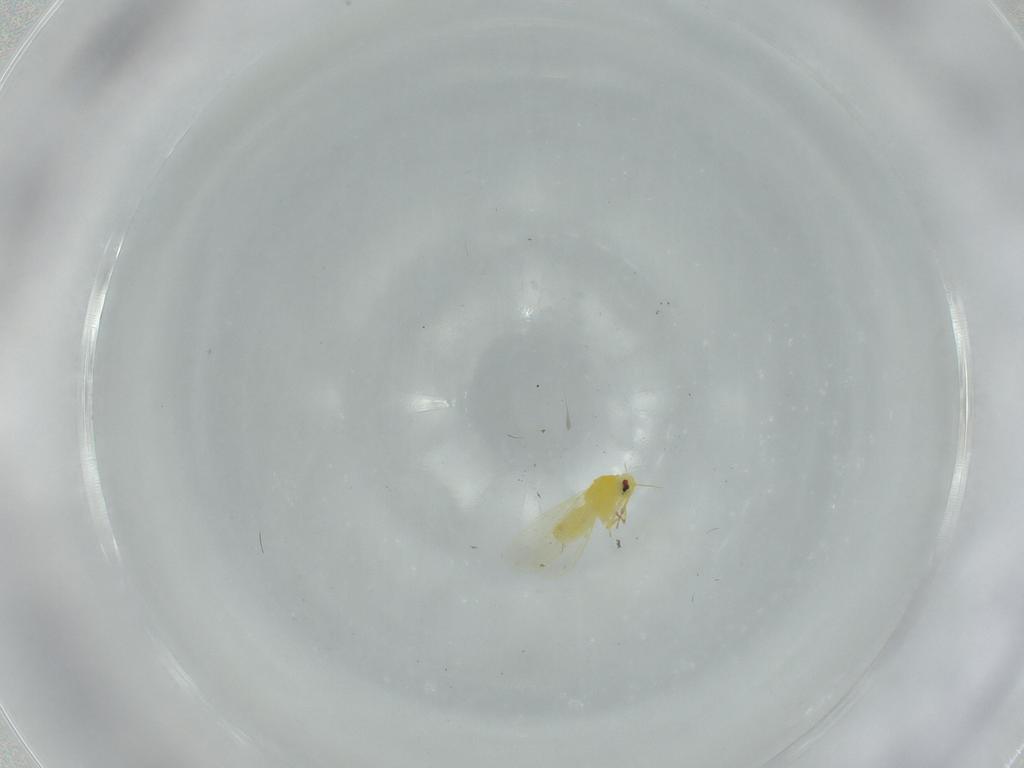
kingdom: Animalia
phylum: Arthropoda
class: Insecta
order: Hemiptera
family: Aleyrodidae
